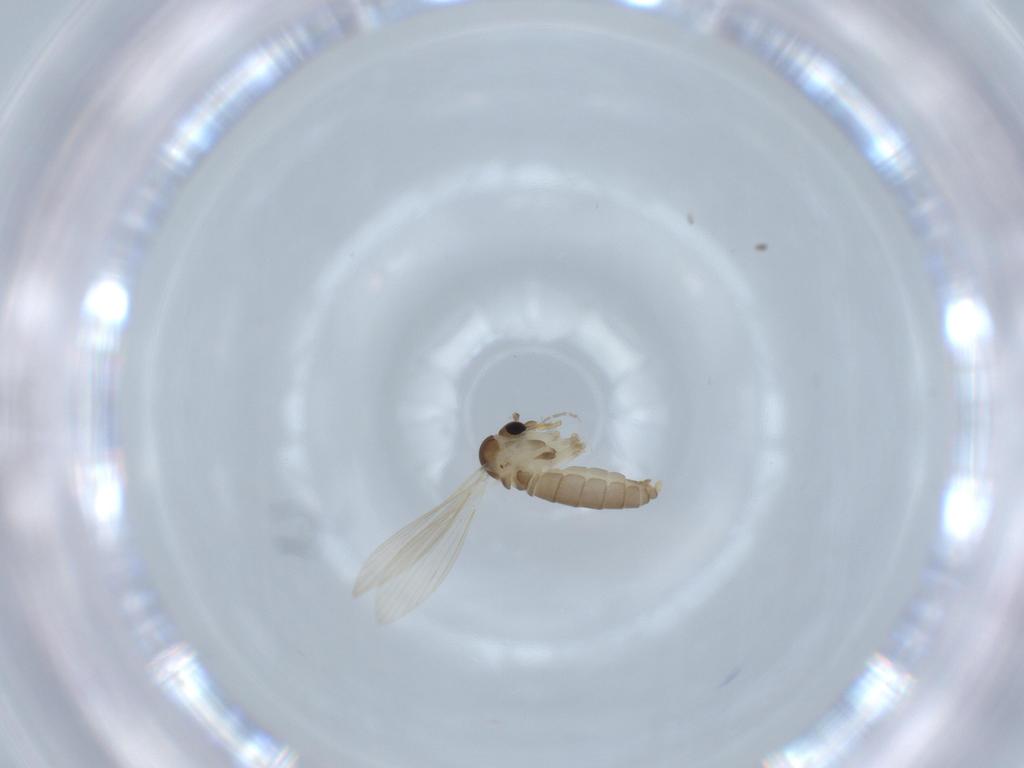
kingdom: Animalia
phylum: Arthropoda
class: Insecta
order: Diptera
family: Psychodidae
